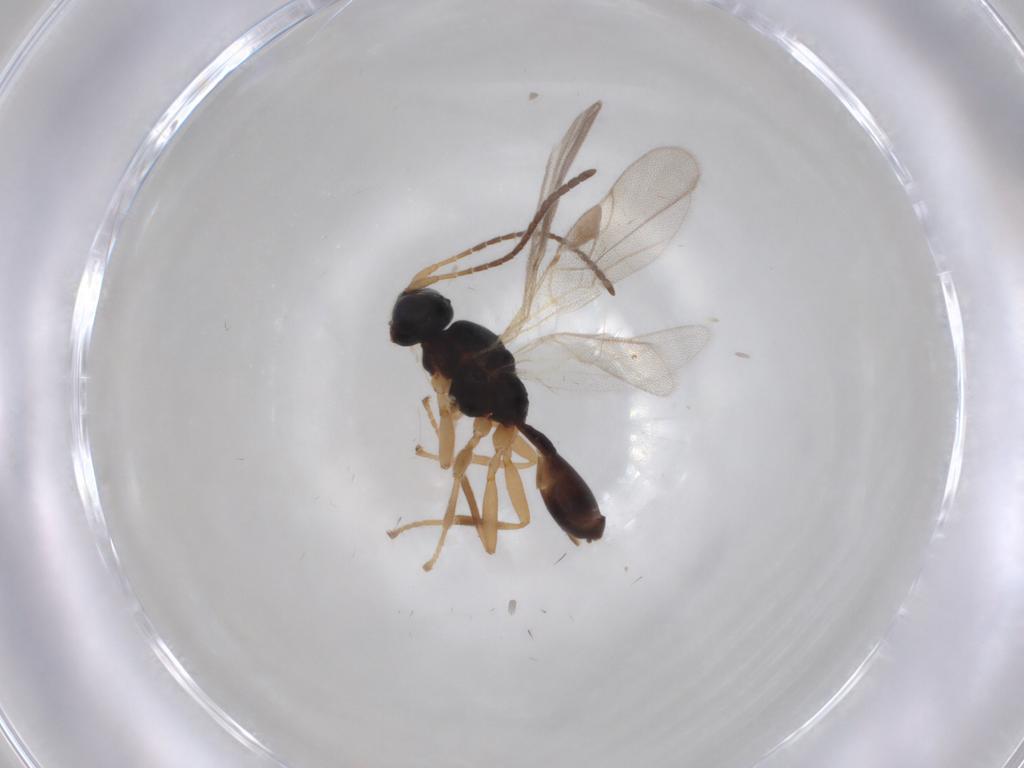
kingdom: Animalia
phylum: Arthropoda
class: Insecta
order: Hymenoptera
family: Braconidae
